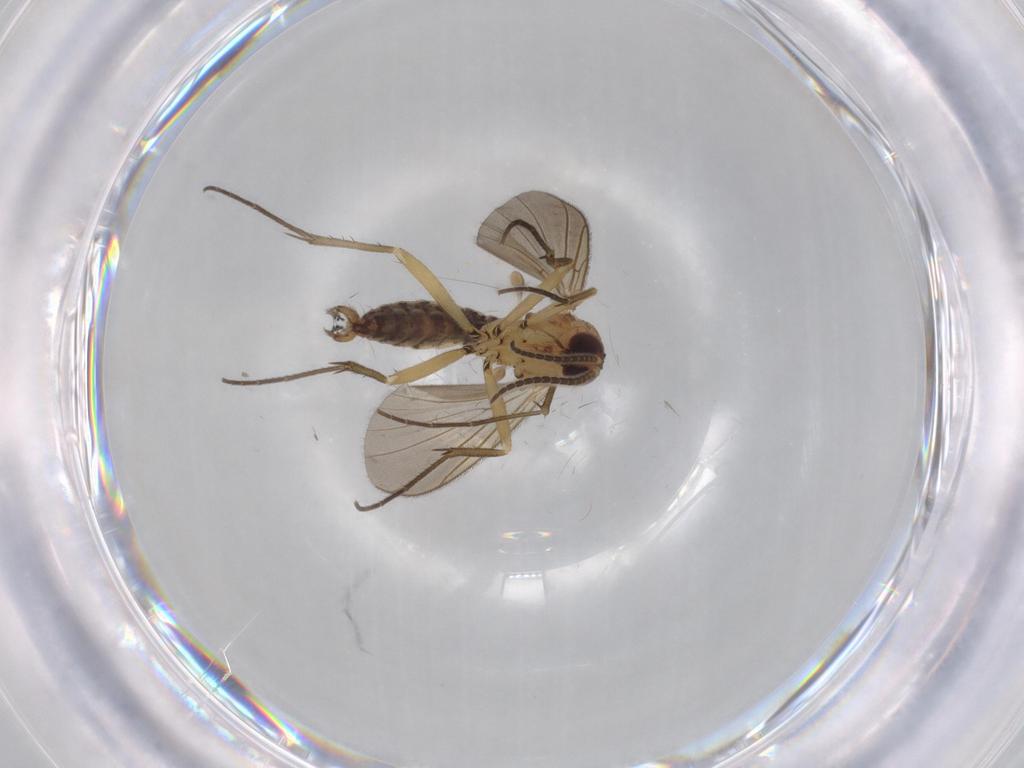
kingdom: Animalia
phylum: Arthropoda
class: Insecta
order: Diptera
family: Mycetophilidae
